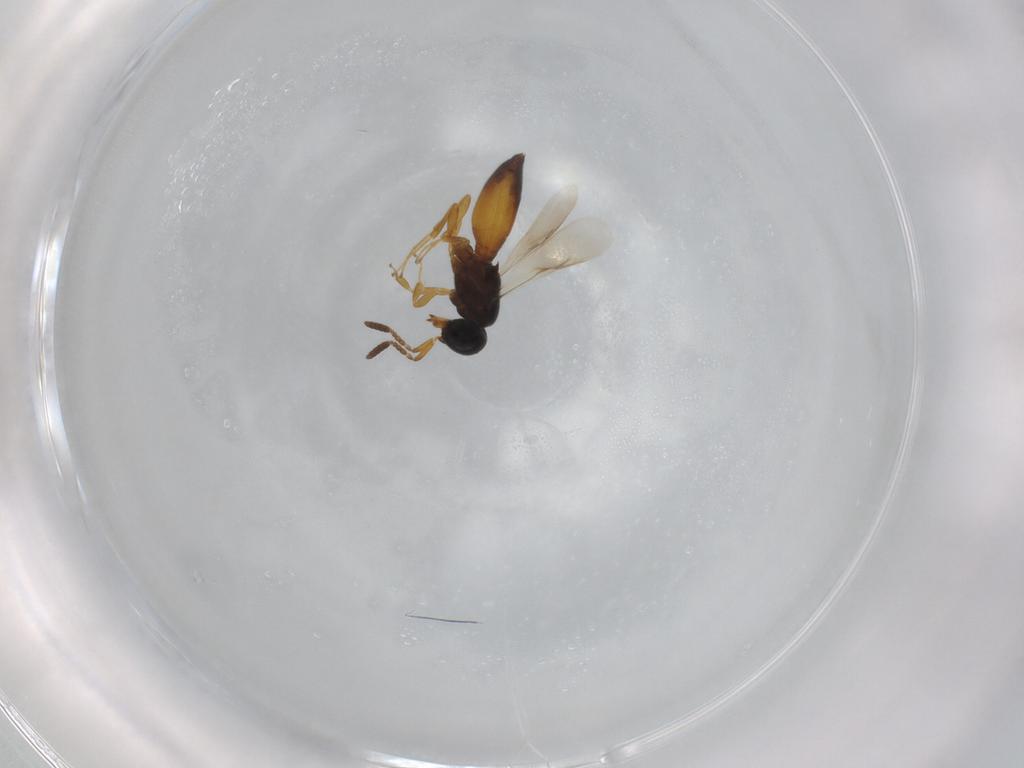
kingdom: Animalia
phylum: Arthropoda
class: Insecta
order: Hymenoptera
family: Scelionidae
